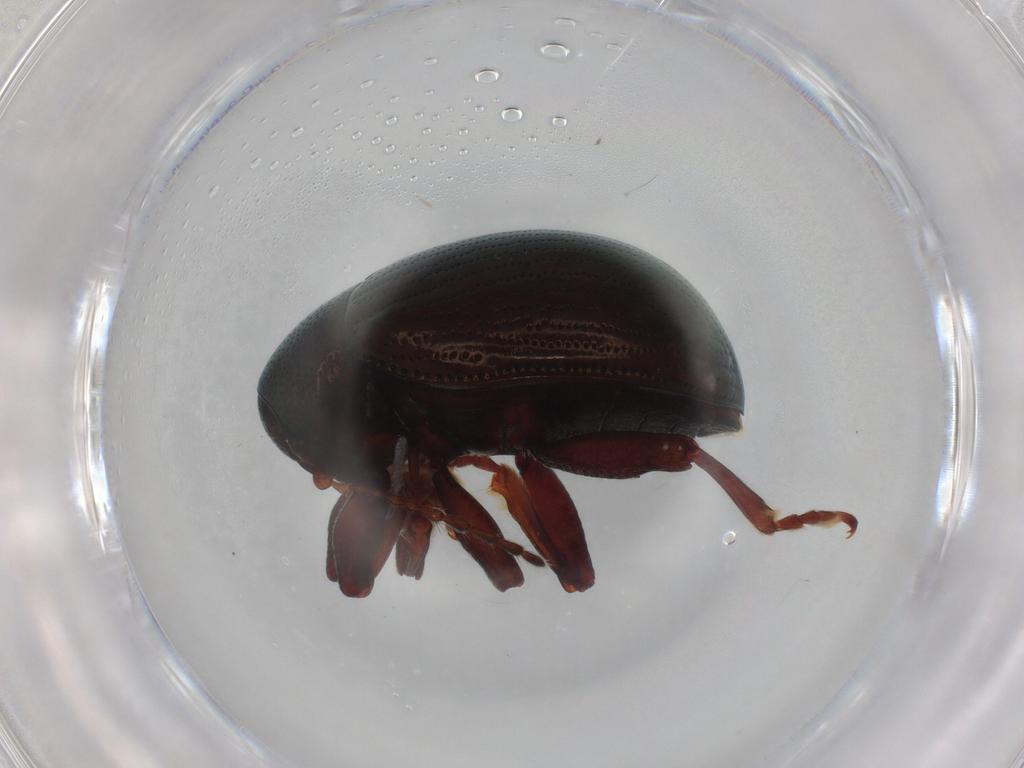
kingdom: Animalia
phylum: Arthropoda
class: Insecta
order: Coleoptera
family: Chrysomelidae
